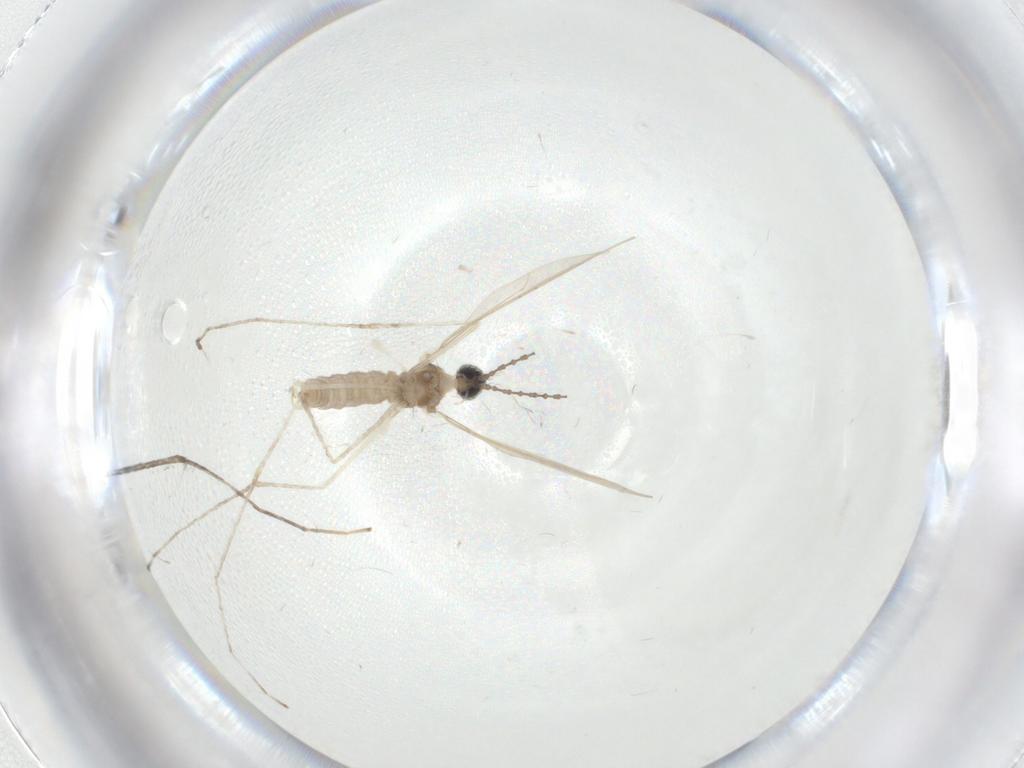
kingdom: Animalia
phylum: Arthropoda
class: Insecta
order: Diptera
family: Cecidomyiidae
